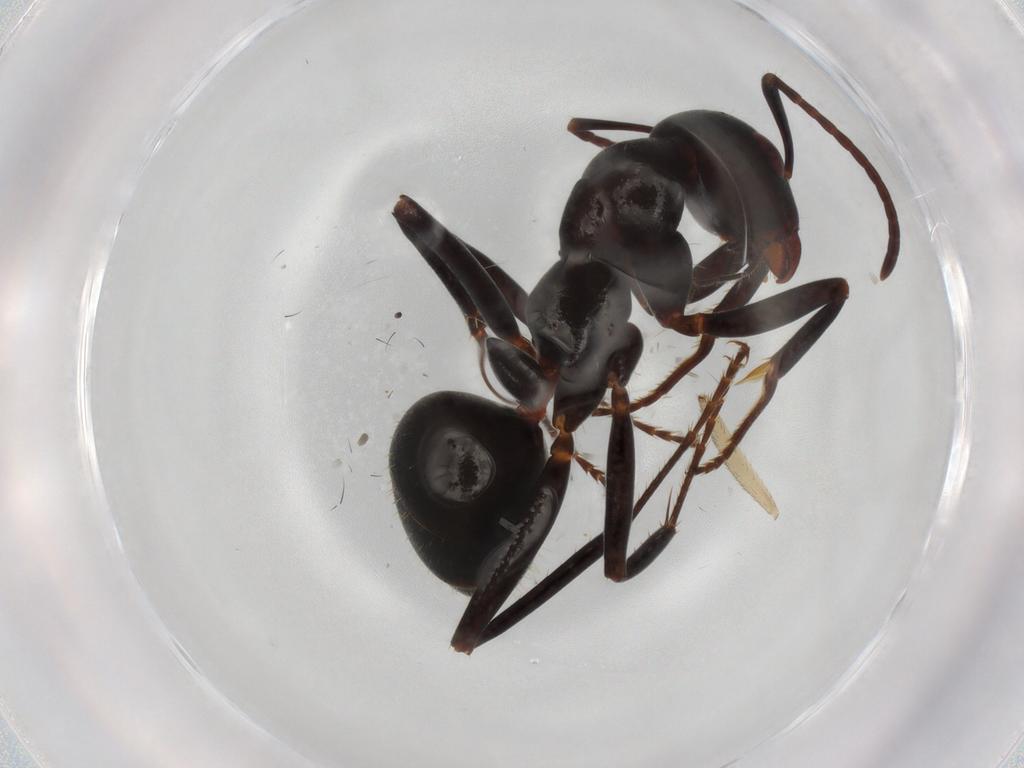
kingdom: Animalia
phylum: Arthropoda
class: Insecta
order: Hymenoptera
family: Formicidae
